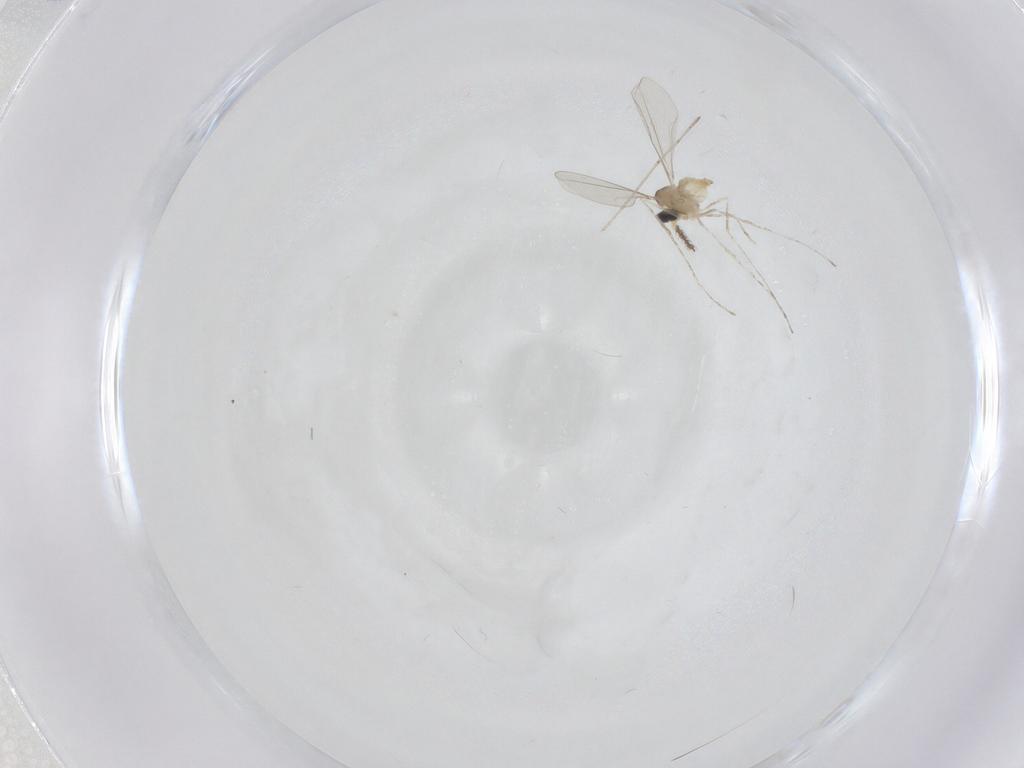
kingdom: Animalia
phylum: Arthropoda
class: Insecta
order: Diptera
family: Cecidomyiidae
